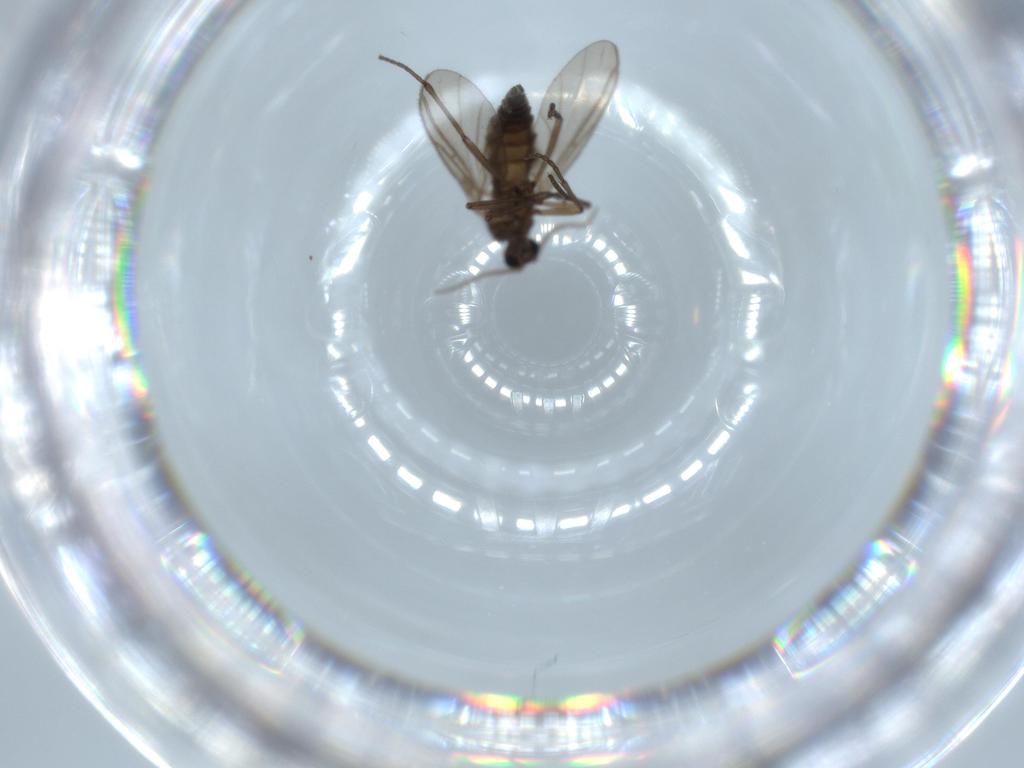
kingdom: Animalia
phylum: Arthropoda
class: Insecta
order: Diptera
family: Sciaridae
